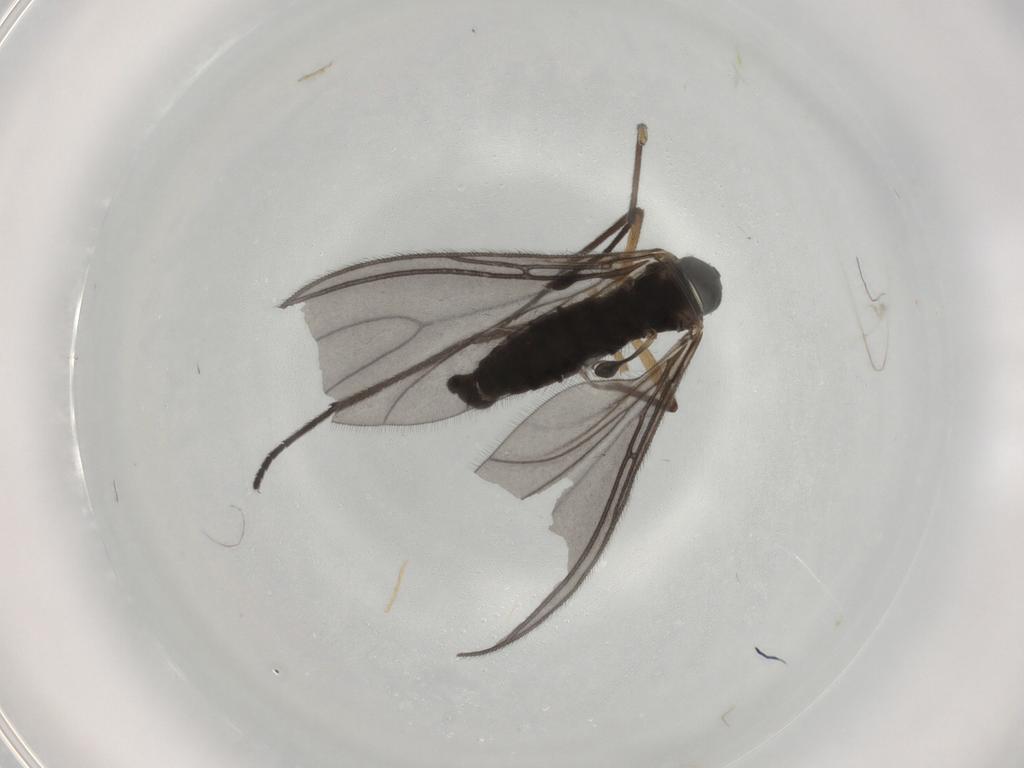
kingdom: Animalia
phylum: Arthropoda
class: Insecta
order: Diptera
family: Sciaridae
